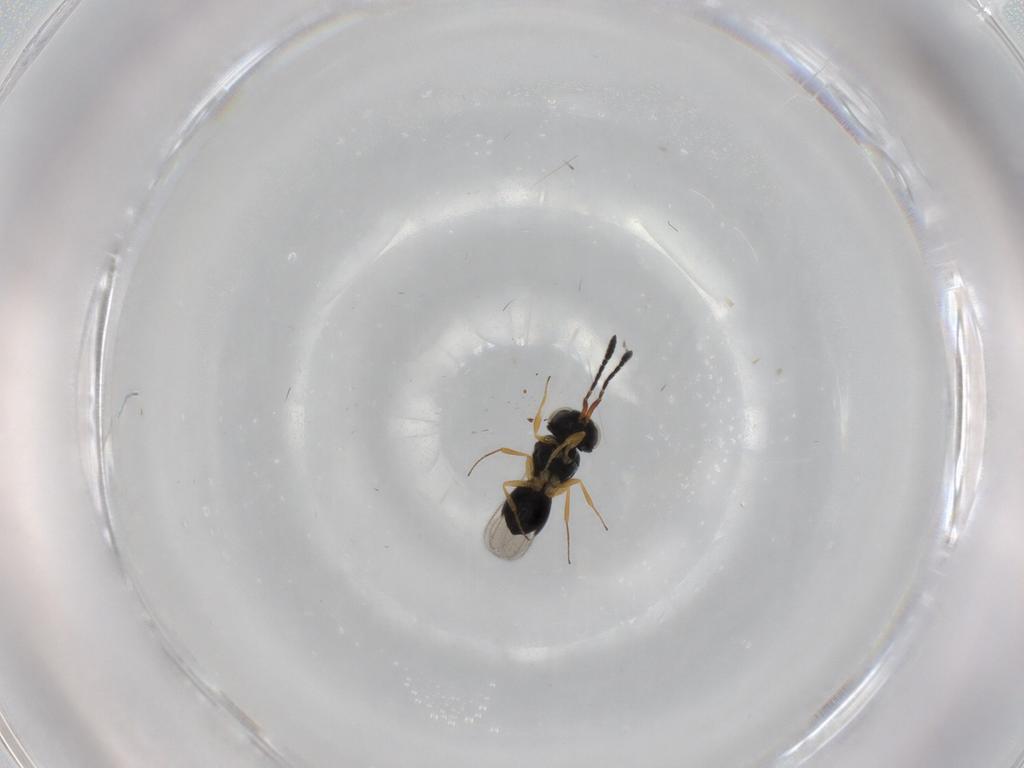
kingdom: Animalia
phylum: Arthropoda
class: Insecta
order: Hymenoptera
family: Scelionidae
